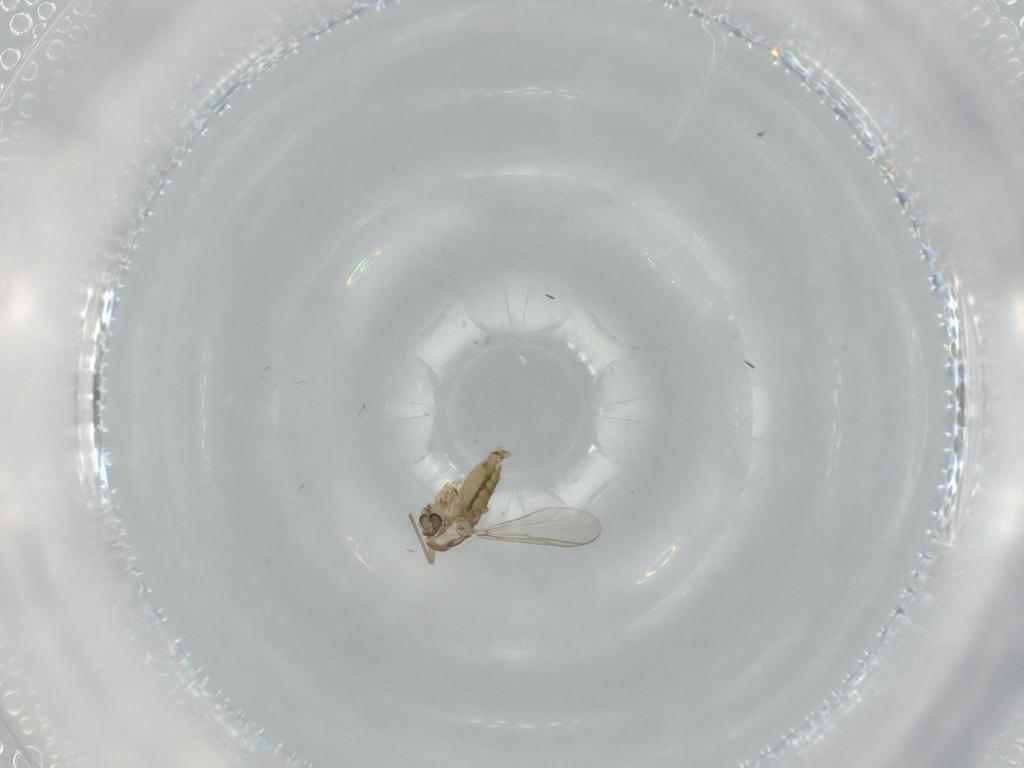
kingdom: Animalia
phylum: Arthropoda
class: Insecta
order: Diptera
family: Chironomidae
